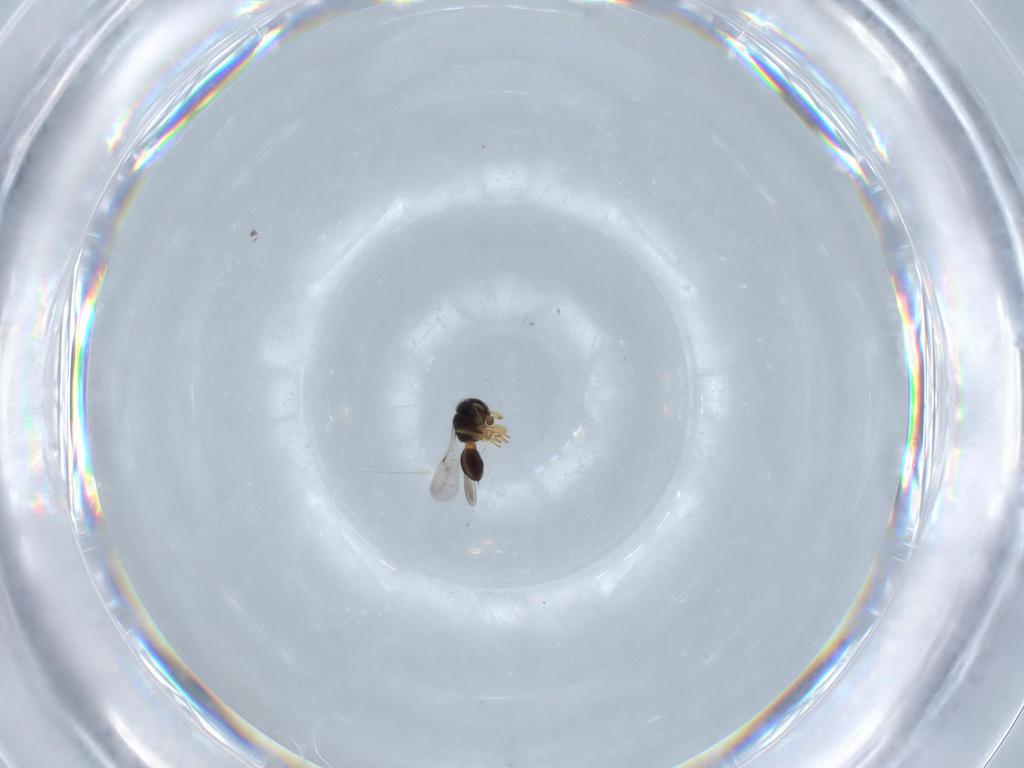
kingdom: Animalia
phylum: Arthropoda
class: Insecta
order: Hymenoptera
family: Scelionidae
